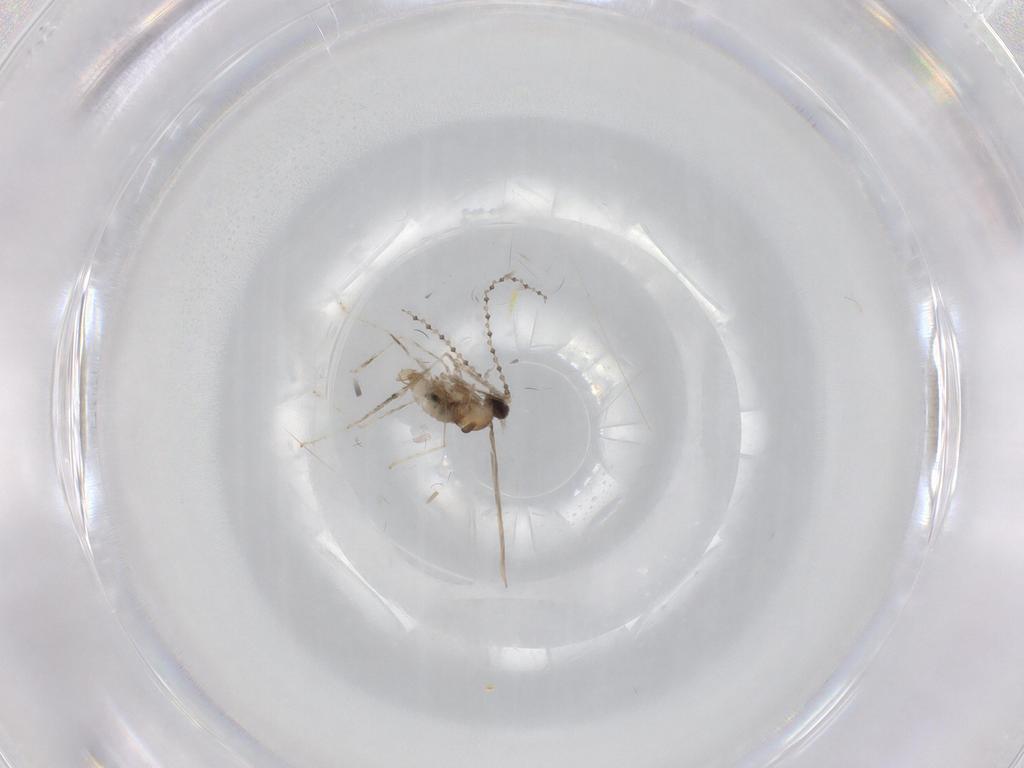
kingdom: Animalia
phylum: Arthropoda
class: Insecta
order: Diptera
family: Cecidomyiidae
